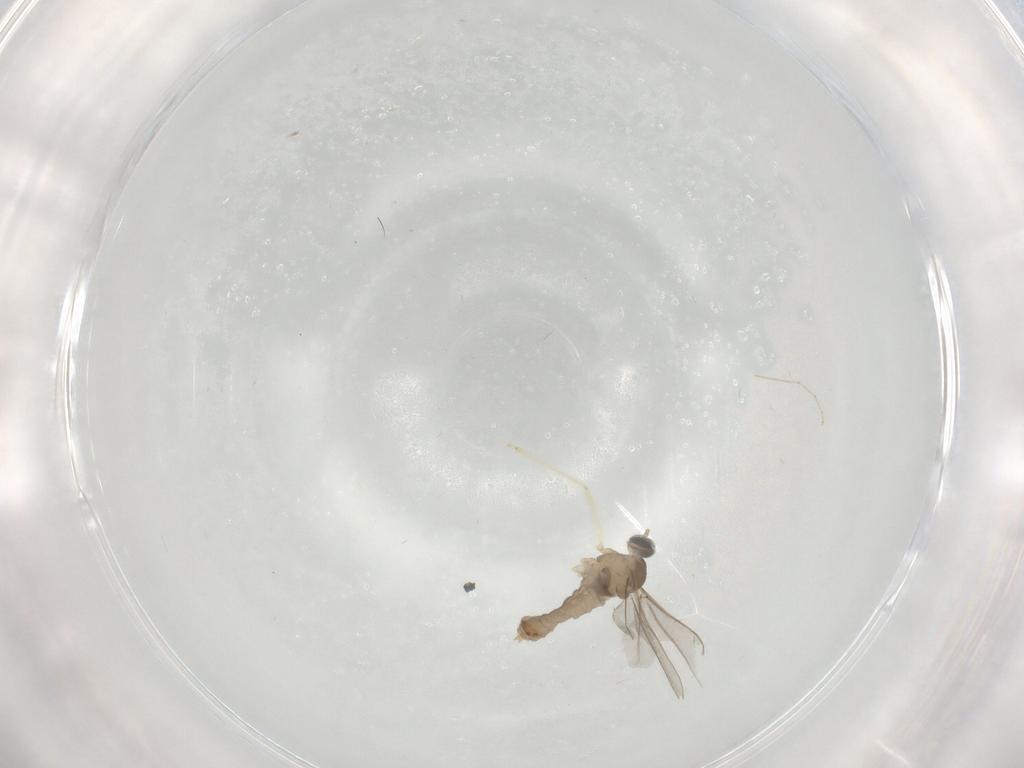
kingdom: Animalia
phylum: Arthropoda
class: Insecta
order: Diptera
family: Cecidomyiidae
